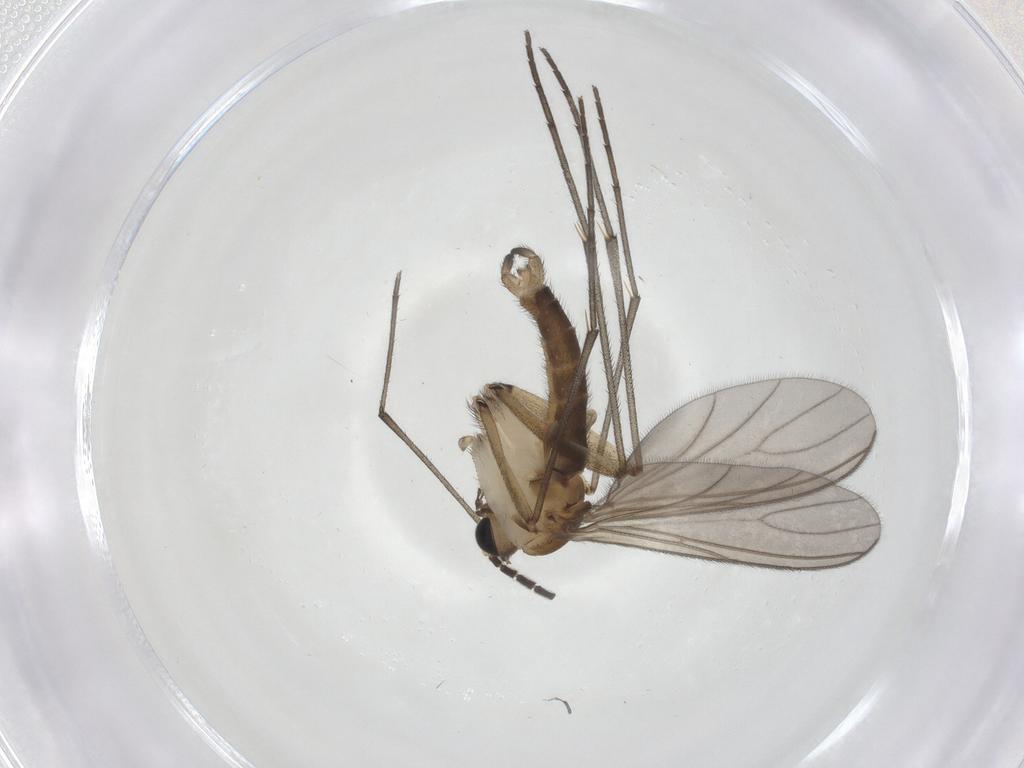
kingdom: Animalia
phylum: Arthropoda
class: Insecta
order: Diptera
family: Sciaridae
